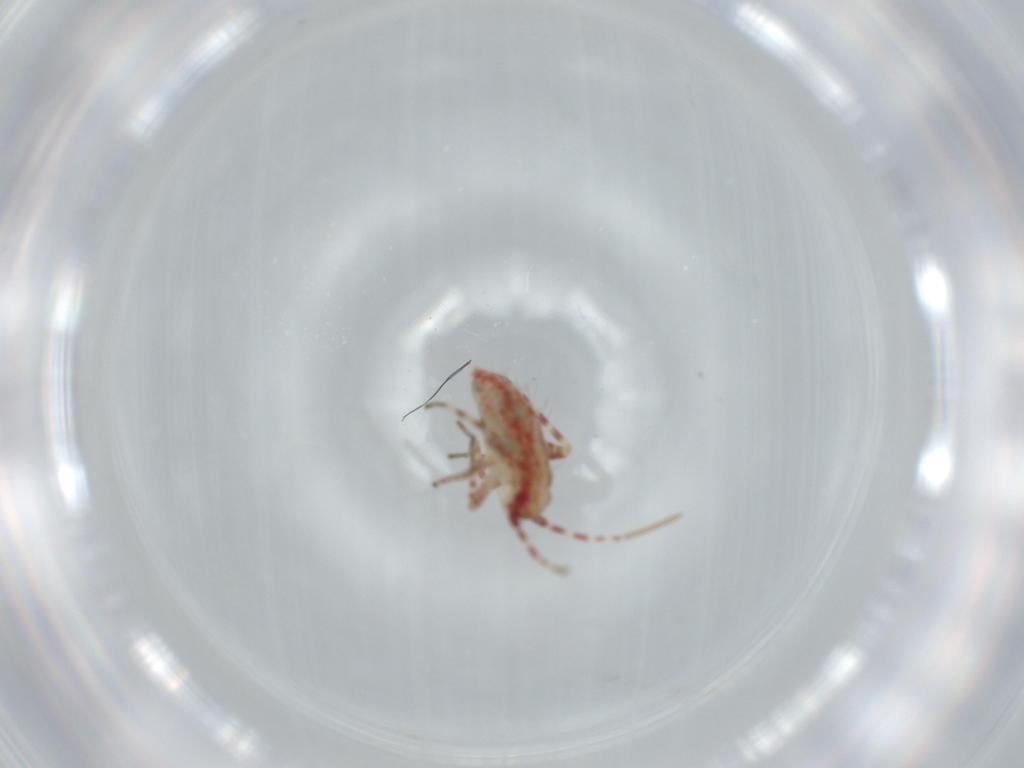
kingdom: Animalia
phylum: Arthropoda
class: Insecta
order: Hemiptera
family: Miridae
